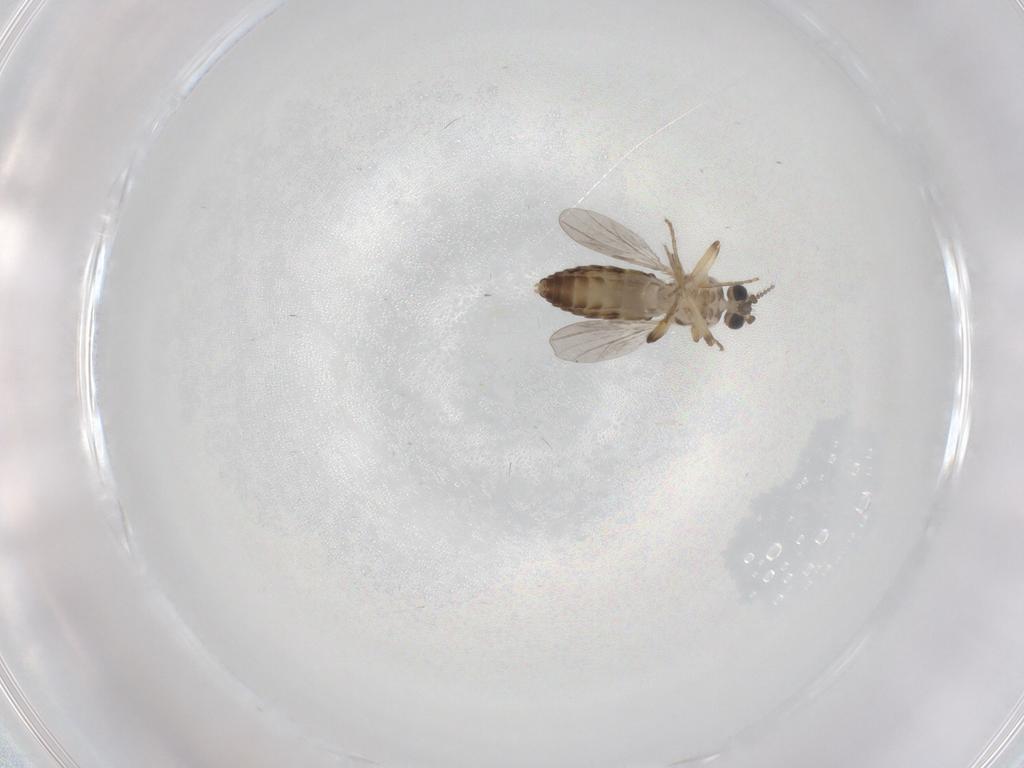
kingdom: Animalia
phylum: Arthropoda
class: Insecta
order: Diptera
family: Ceratopogonidae
